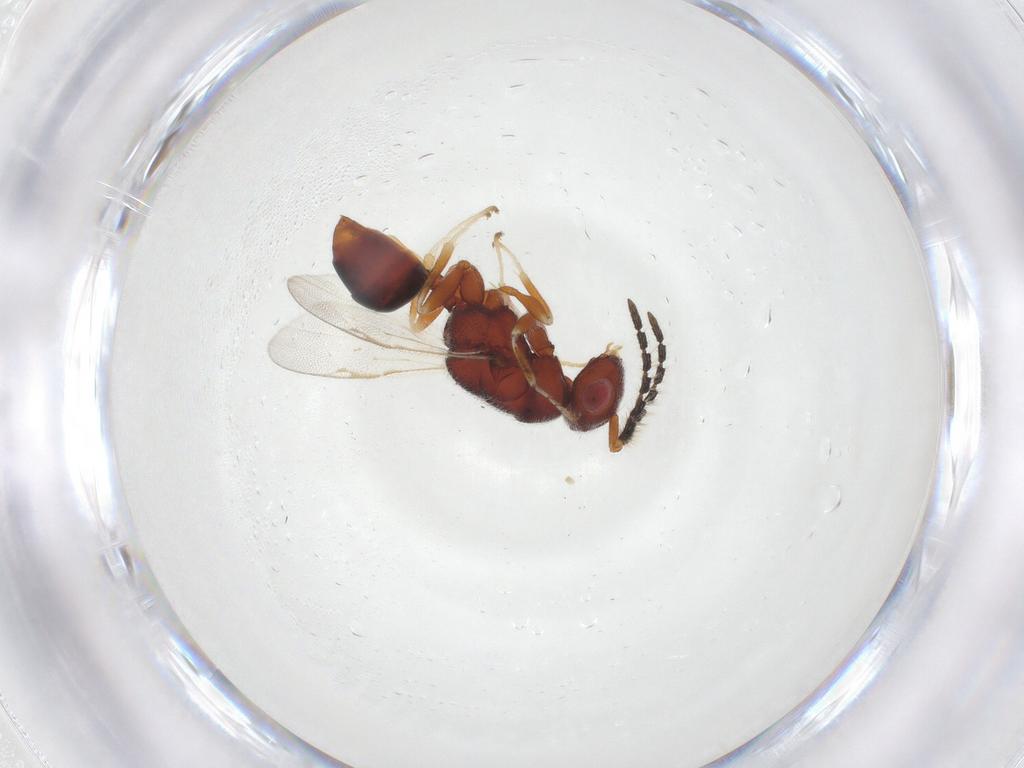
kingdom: Animalia
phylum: Arthropoda
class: Insecta
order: Hymenoptera
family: Eurytomidae
